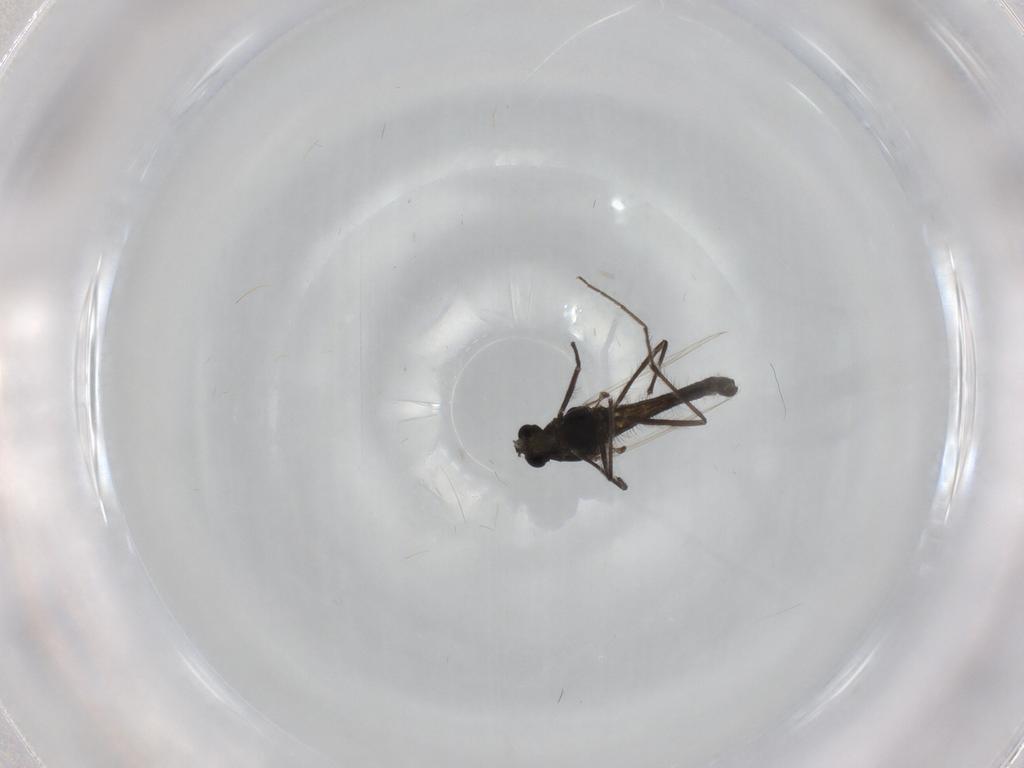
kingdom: Animalia
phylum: Arthropoda
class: Insecta
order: Diptera
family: Chironomidae
